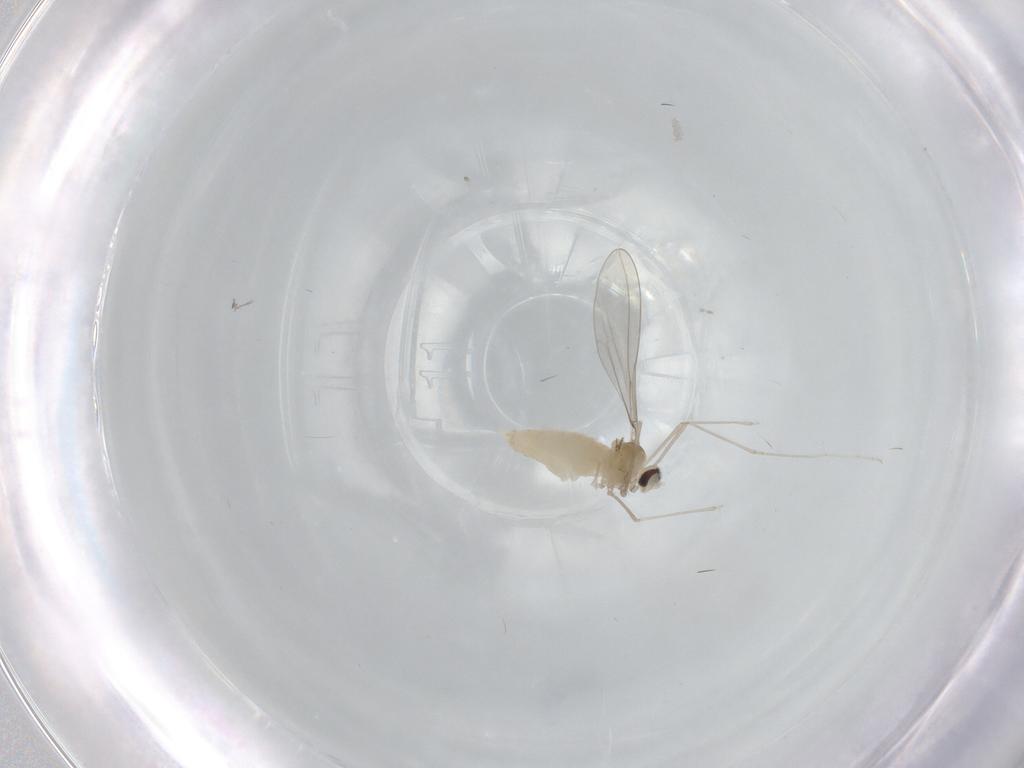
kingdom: Animalia
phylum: Arthropoda
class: Insecta
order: Diptera
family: Cecidomyiidae
